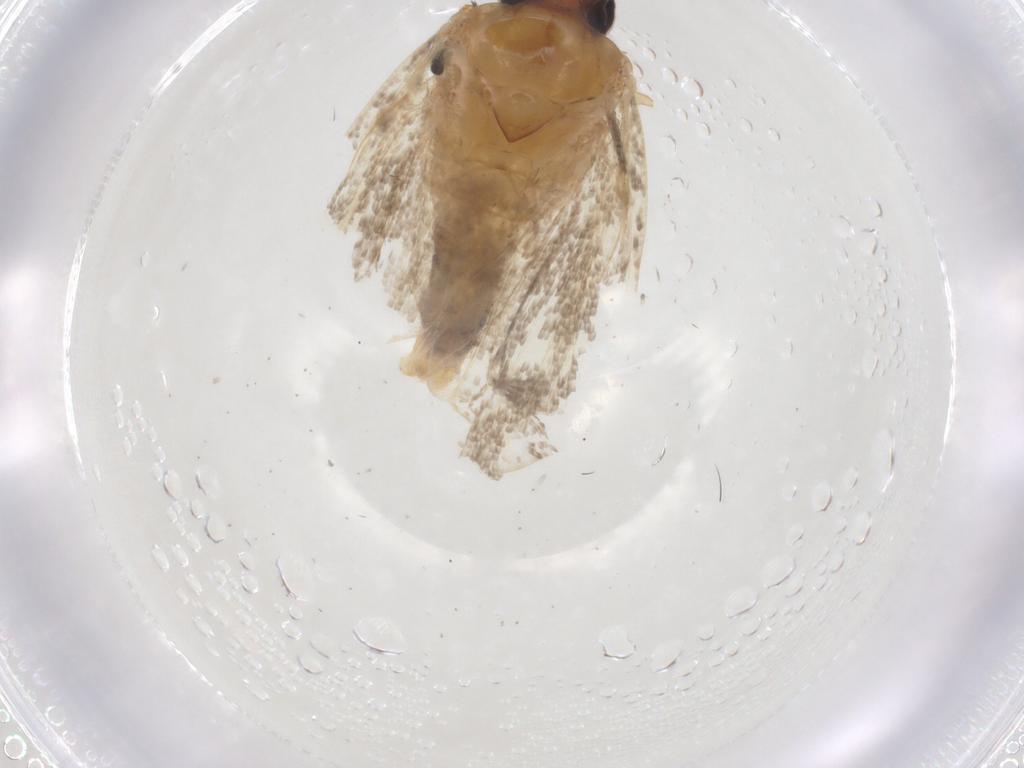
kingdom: Animalia
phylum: Arthropoda
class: Insecta
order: Lepidoptera
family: Gelechiidae
